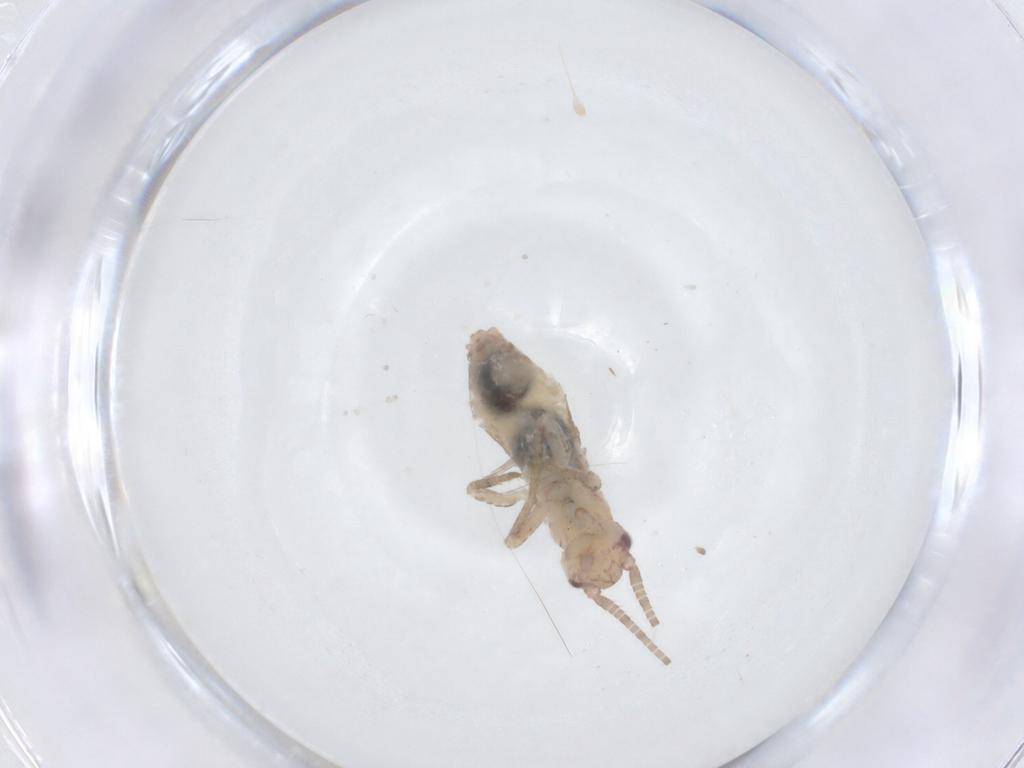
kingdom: Animalia
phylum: Arthropoda
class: Insecta
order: Orthoptera
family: Mogoplistidae
